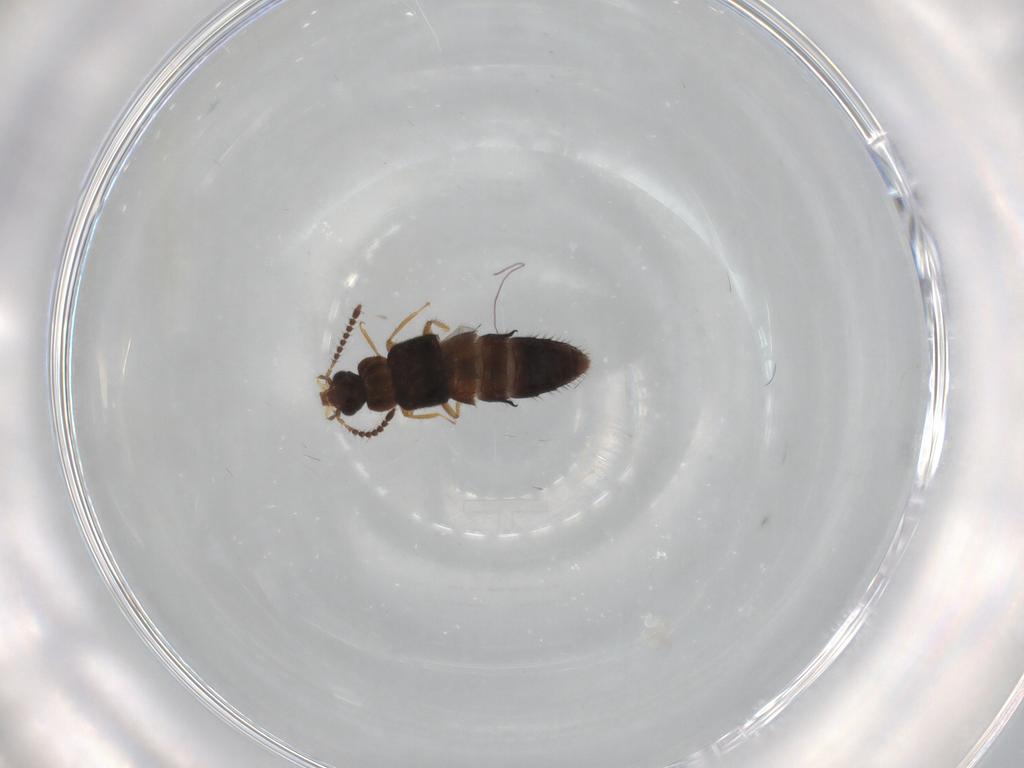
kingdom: Animalia
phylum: Arthropoda
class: Insecta
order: Coleoptera
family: Staphylinidae
